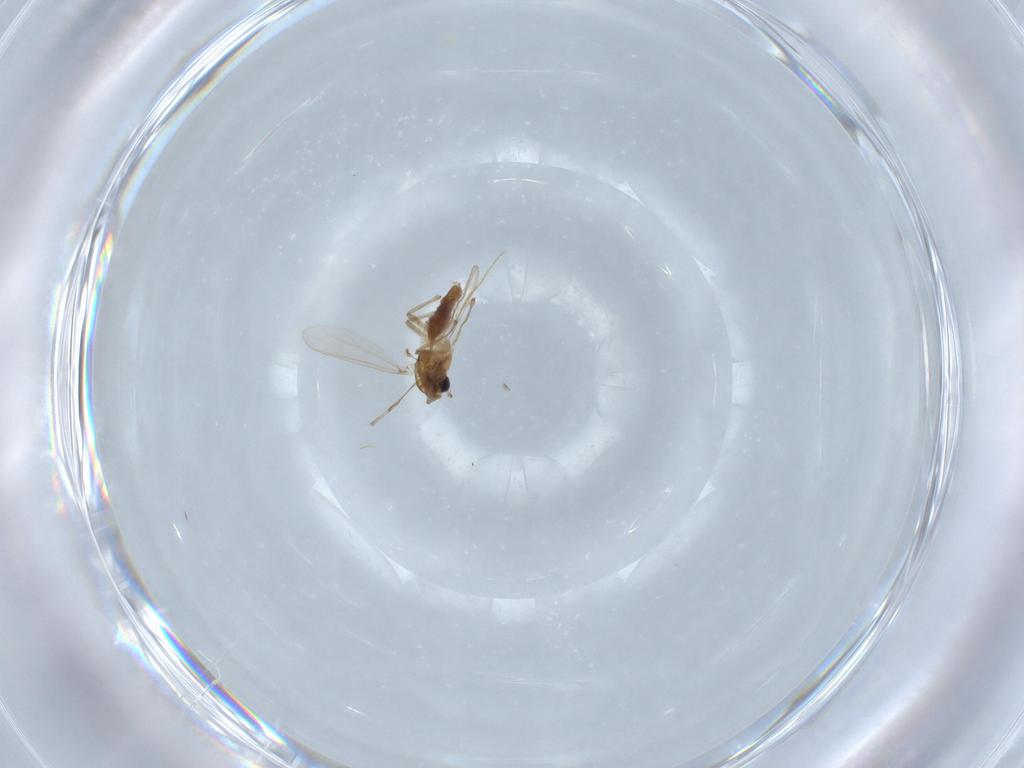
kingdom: Animalia
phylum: Arthropoda
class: Insecta
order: Diptera
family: Chironomidae
